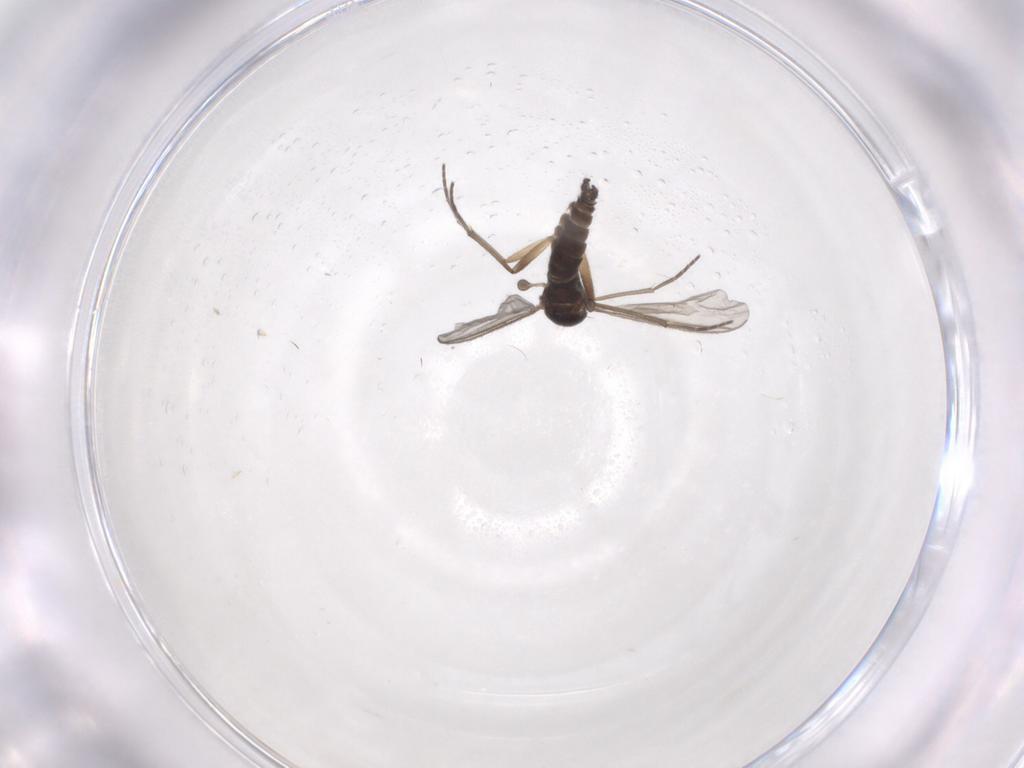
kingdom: Animalia
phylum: Arthropoda
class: Insecta
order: Diptera
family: Sciaridae
